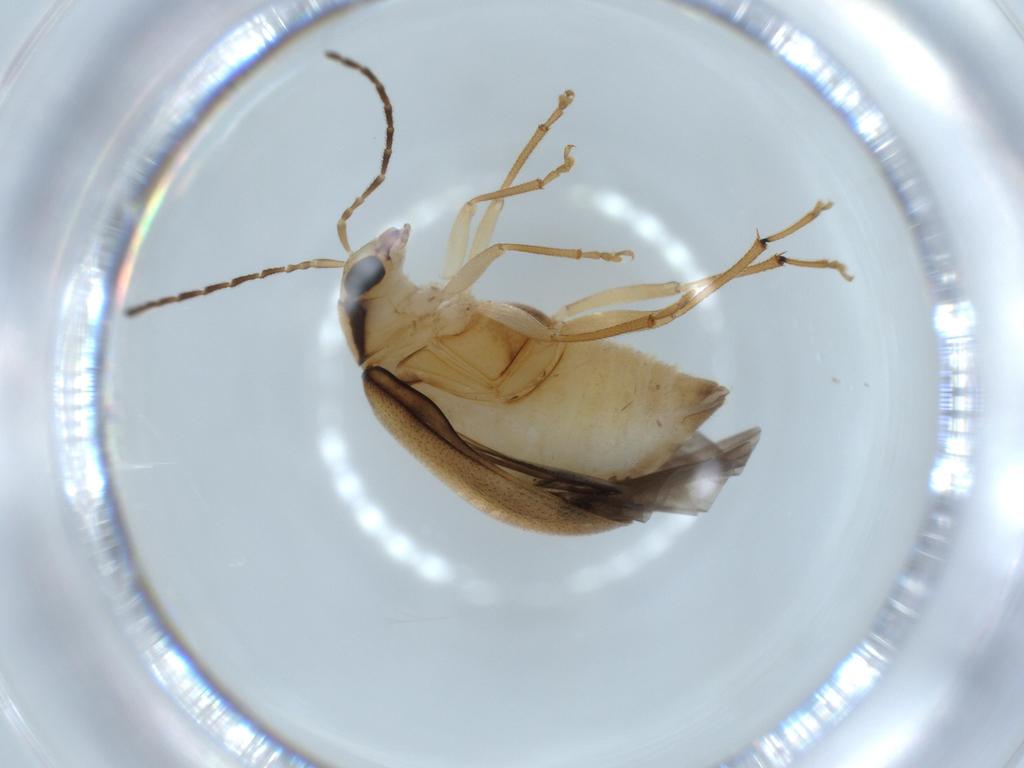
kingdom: Animalia
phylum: Arthropoda
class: Insecta
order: Coleoptera
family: Chrysomelidae
